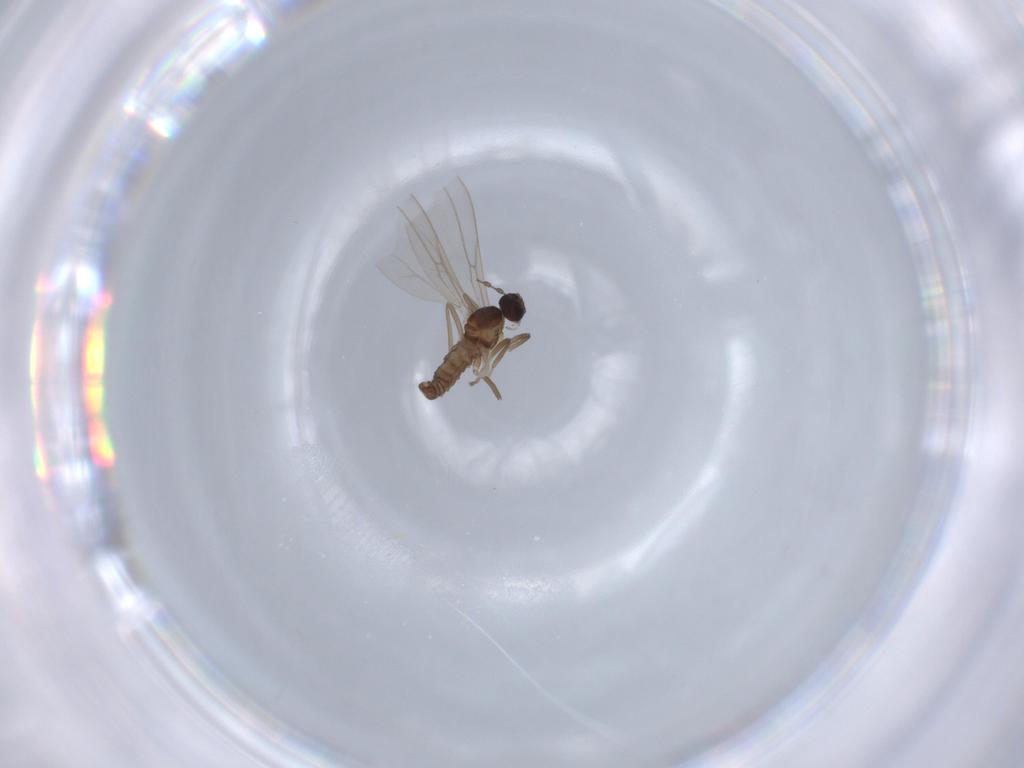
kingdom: Animalia
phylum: Arthropoda
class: Insecta
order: Diptera
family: Cecidomyiidae
